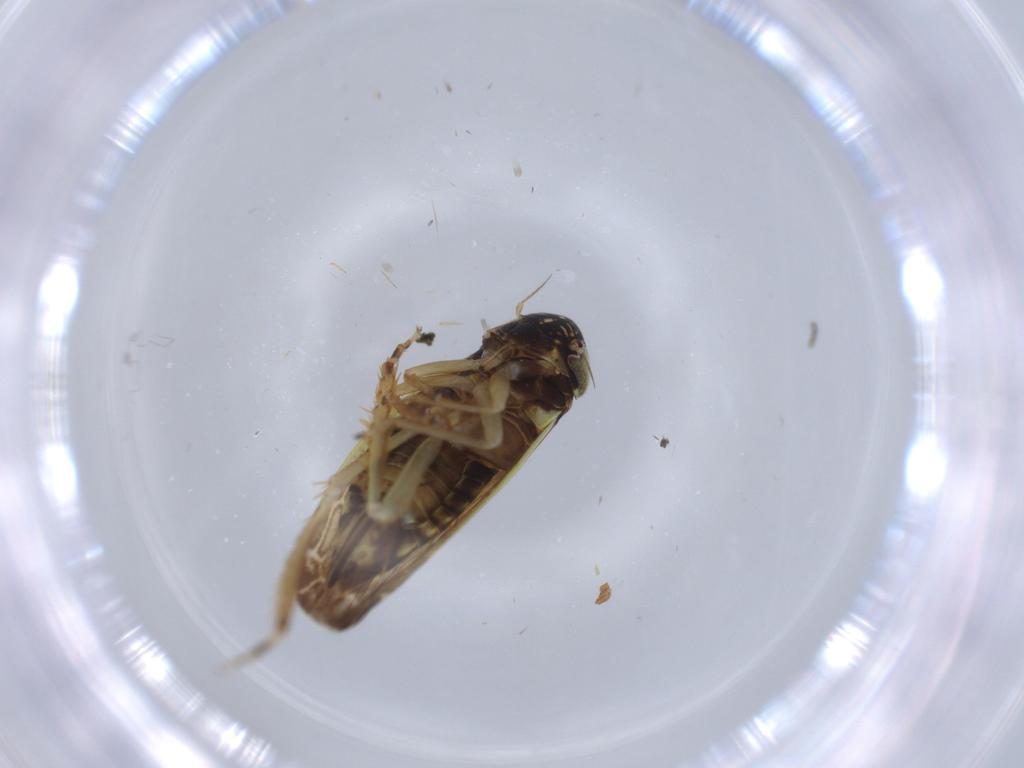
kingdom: Animalia
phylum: Arthropoda
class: Insecta
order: Hemiptera
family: Cicadellidae
